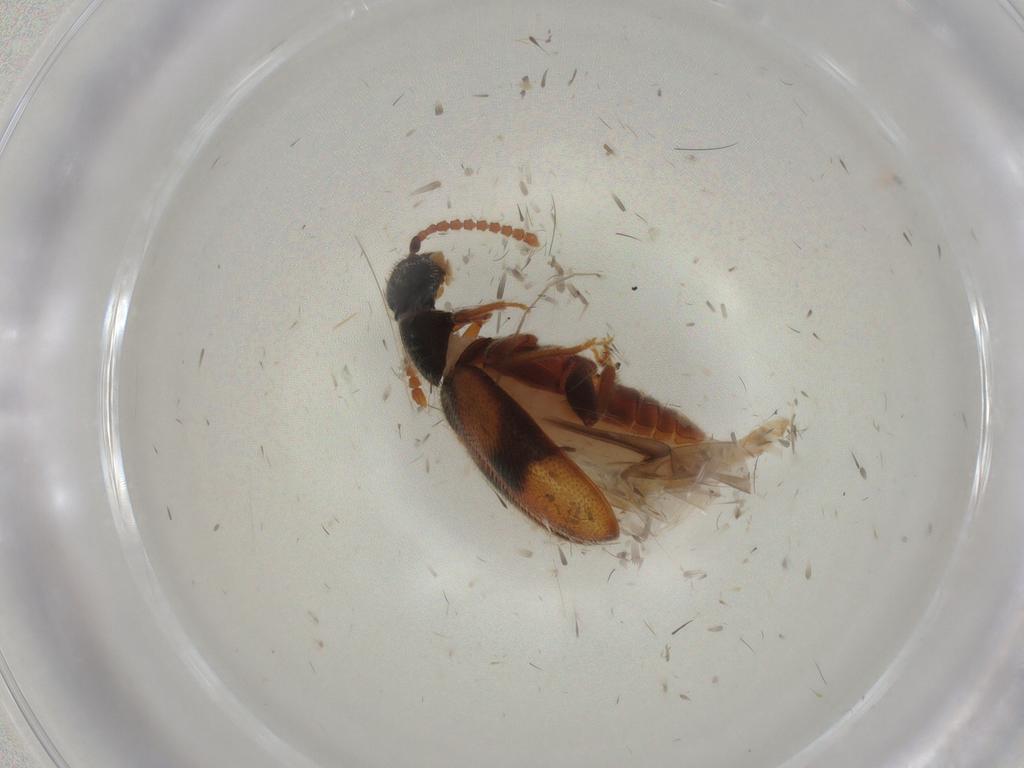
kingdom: Animalia
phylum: Arthropoda
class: Insecta
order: Coleoptera
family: Aderidae
